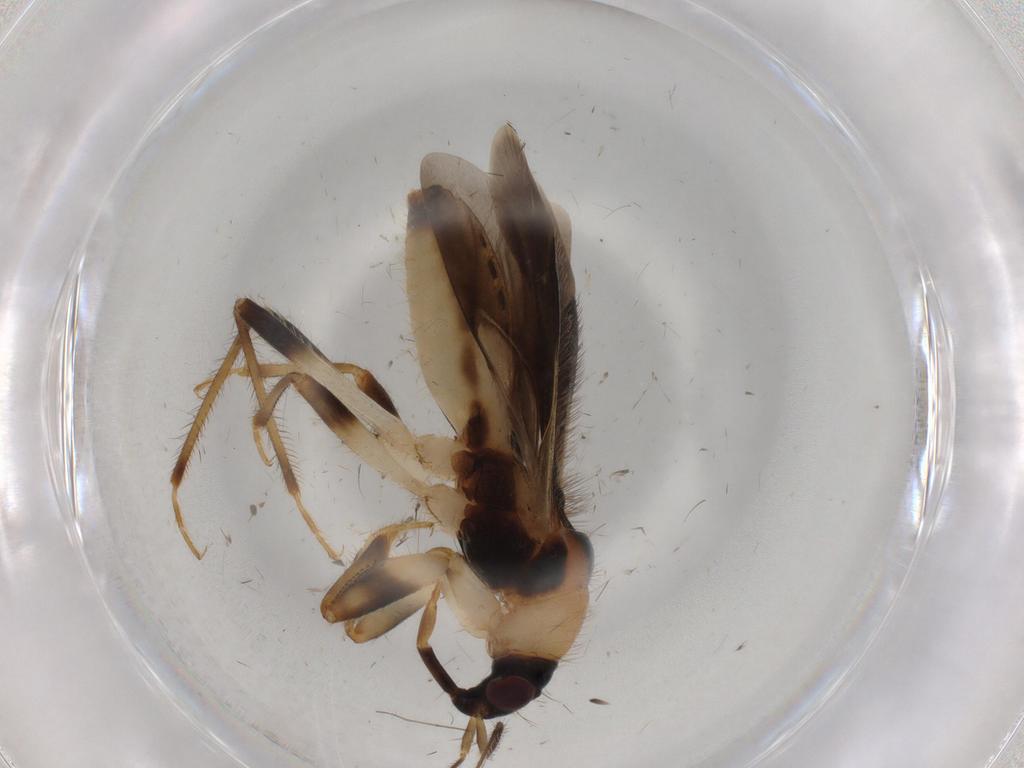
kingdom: Animalia
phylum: Arthropoda
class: Insecta
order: Hemiptera
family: Nabidae
